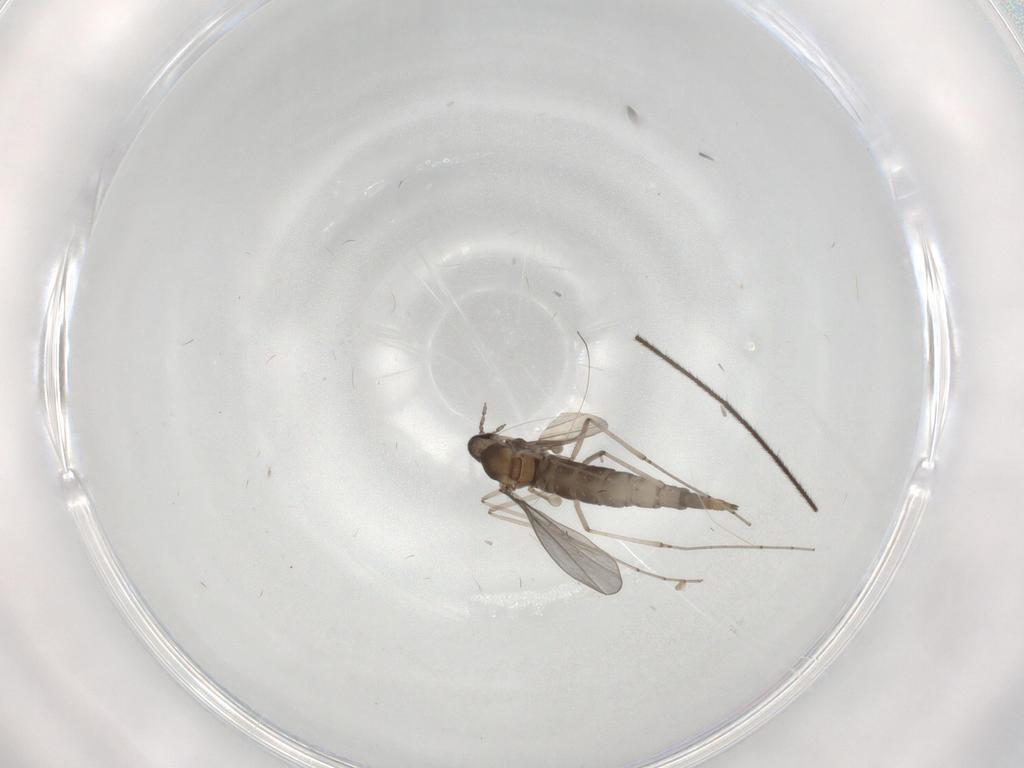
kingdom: Animalia
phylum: Arthropoda
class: Insecta
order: Diptera
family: Cecidomyiidae
